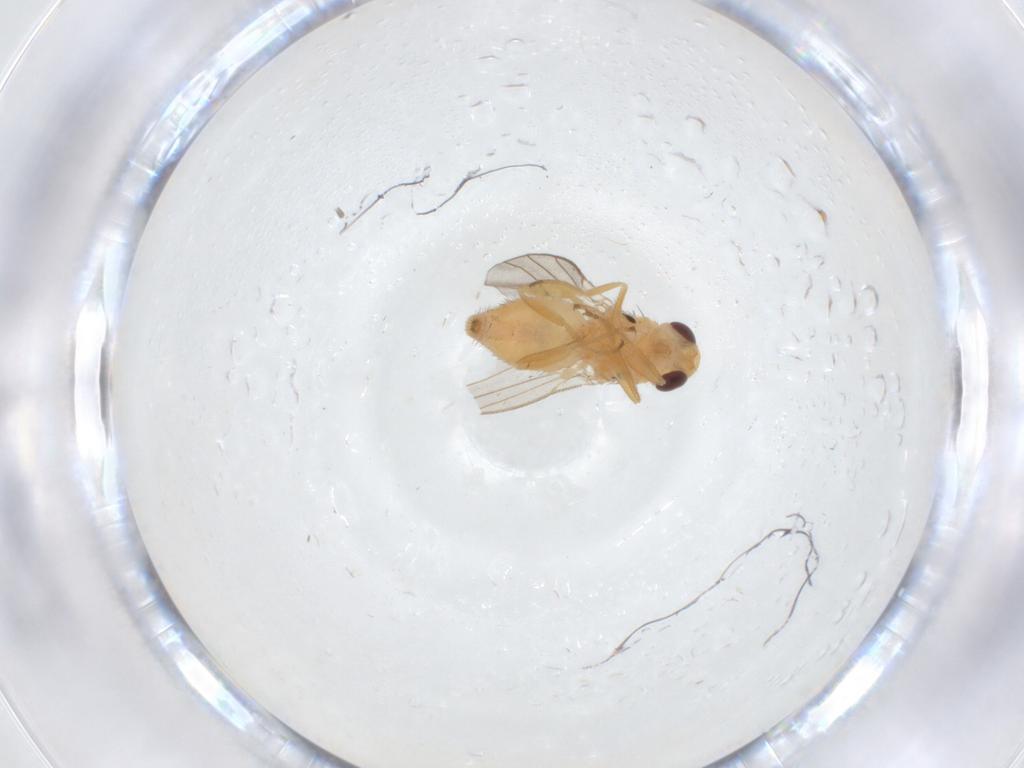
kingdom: Animalia
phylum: Arthropoda
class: Insecta
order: Diptera
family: Chloropidae
